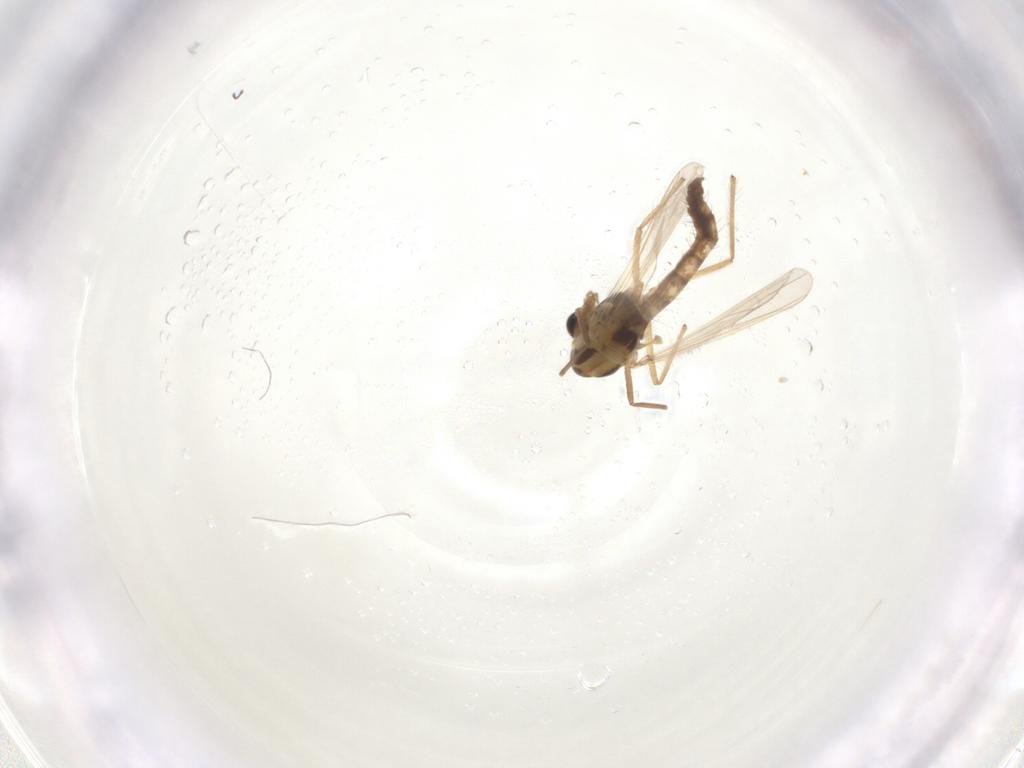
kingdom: Animalia
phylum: Arthropoda
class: Insecta
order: Diptera
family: Chironomidae
